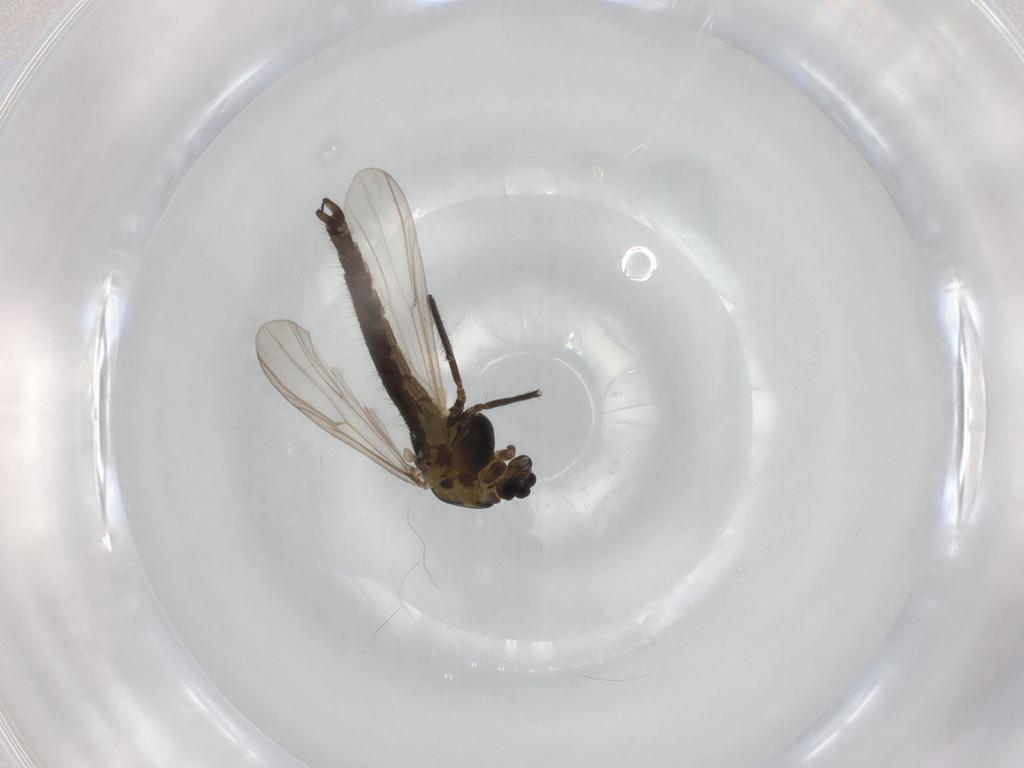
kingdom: Animalia
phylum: Arthropoda
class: Insecta
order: Diptera
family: Chironomidae
